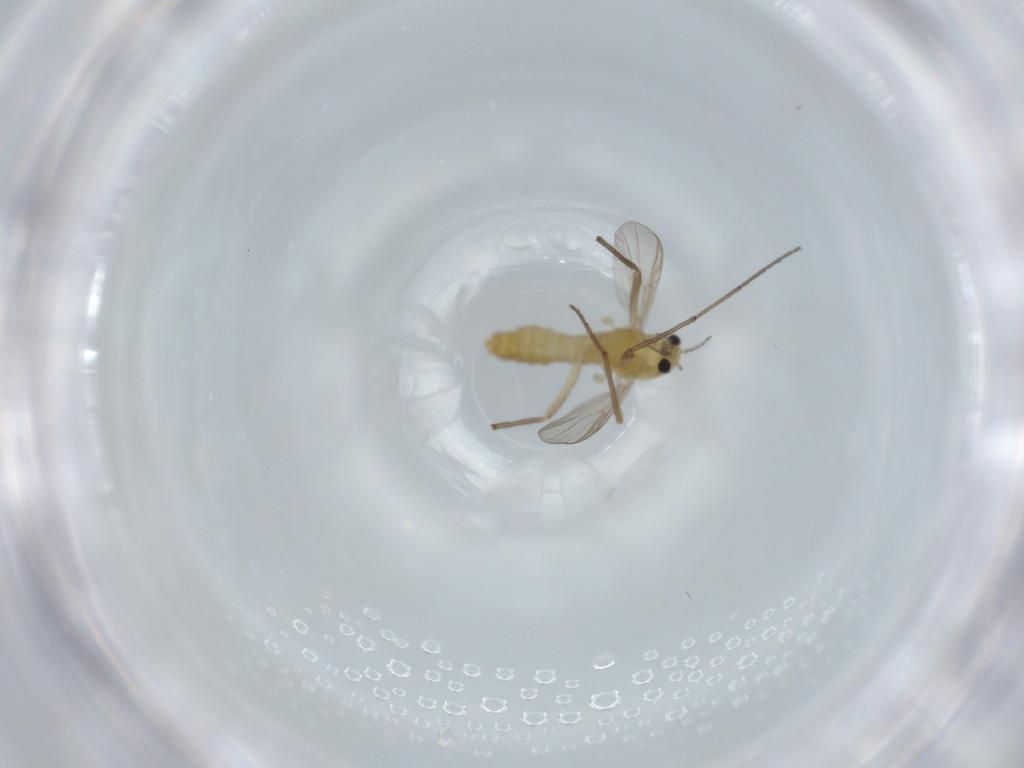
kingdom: Animalia
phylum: Arthropoda
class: Insecta
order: Diptera
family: Chironomidae
